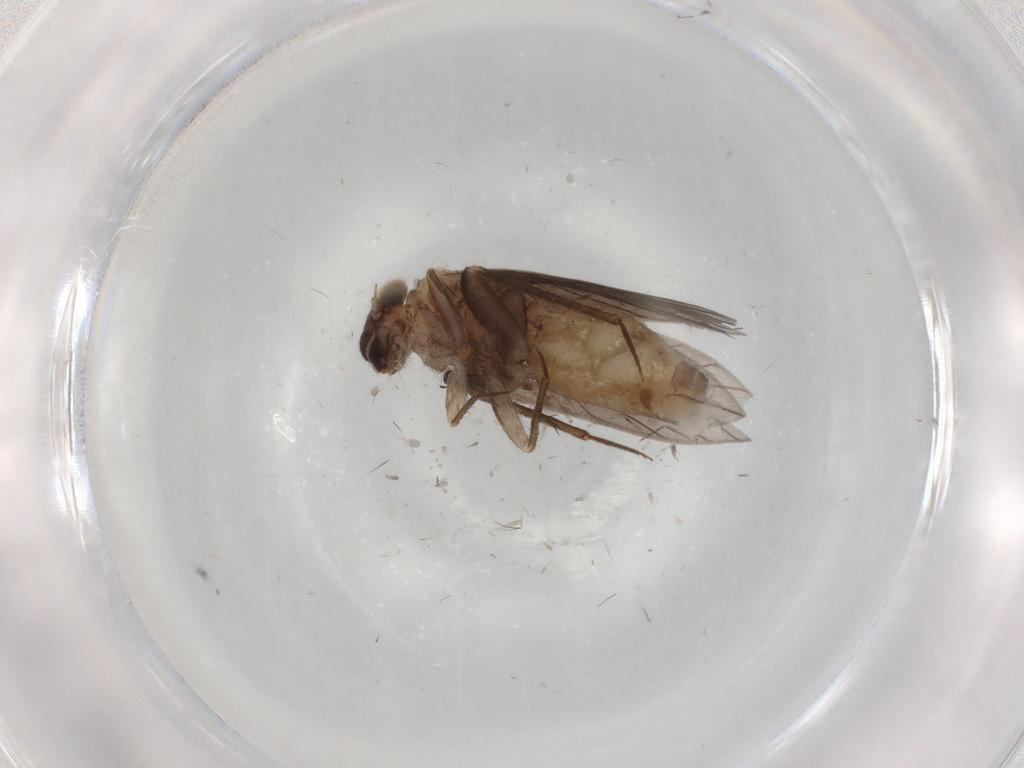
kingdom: Animalia
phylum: Arthropoda
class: Insecta
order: Psocodea
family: Lepidopsocidae
